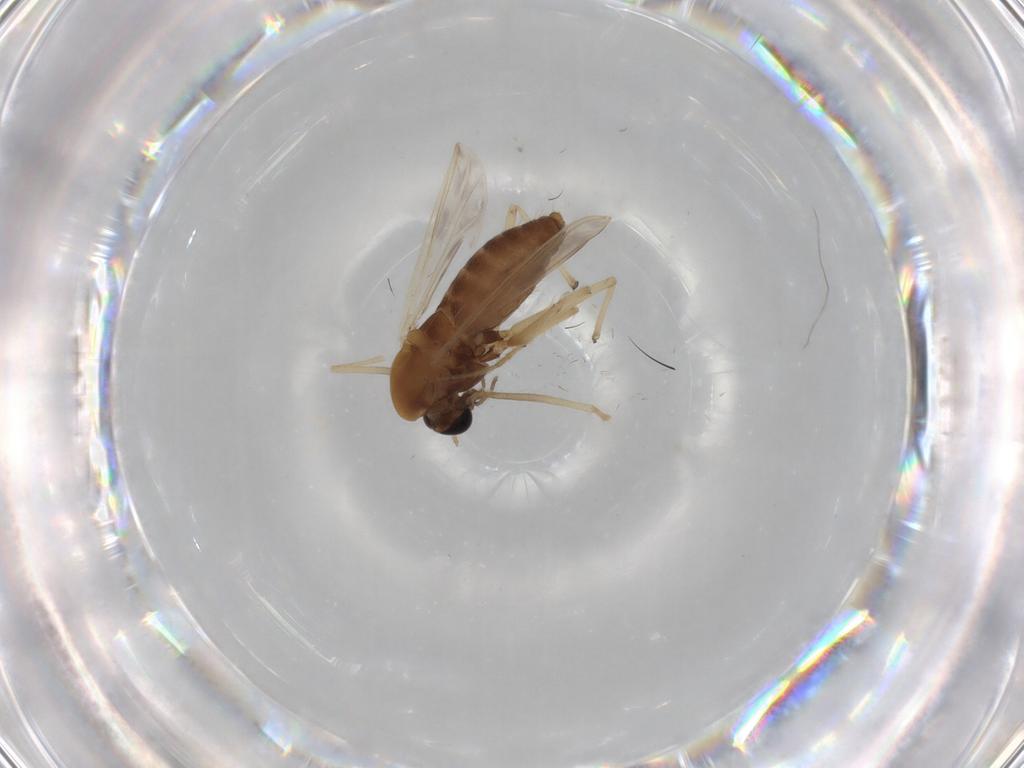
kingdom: Animalia
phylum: Arthropoda
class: Insecta
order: Diptera
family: Chironomidae
